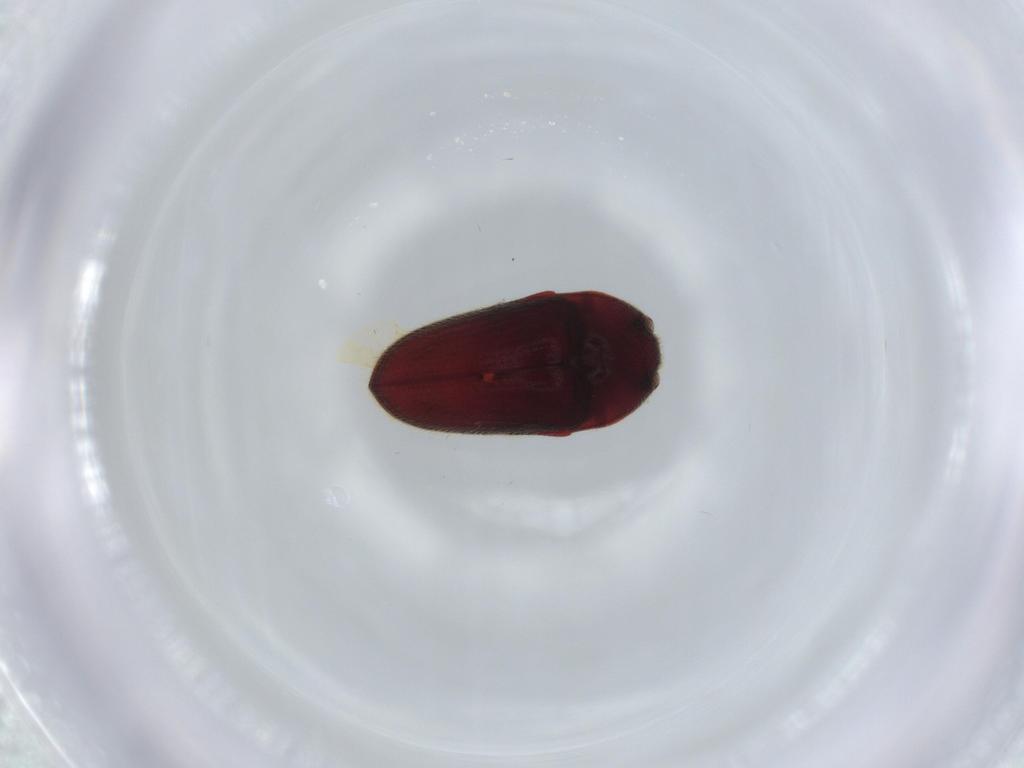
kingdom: Animalia
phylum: Arthropoda
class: Insecta
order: Coleoptera
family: Throscidae
